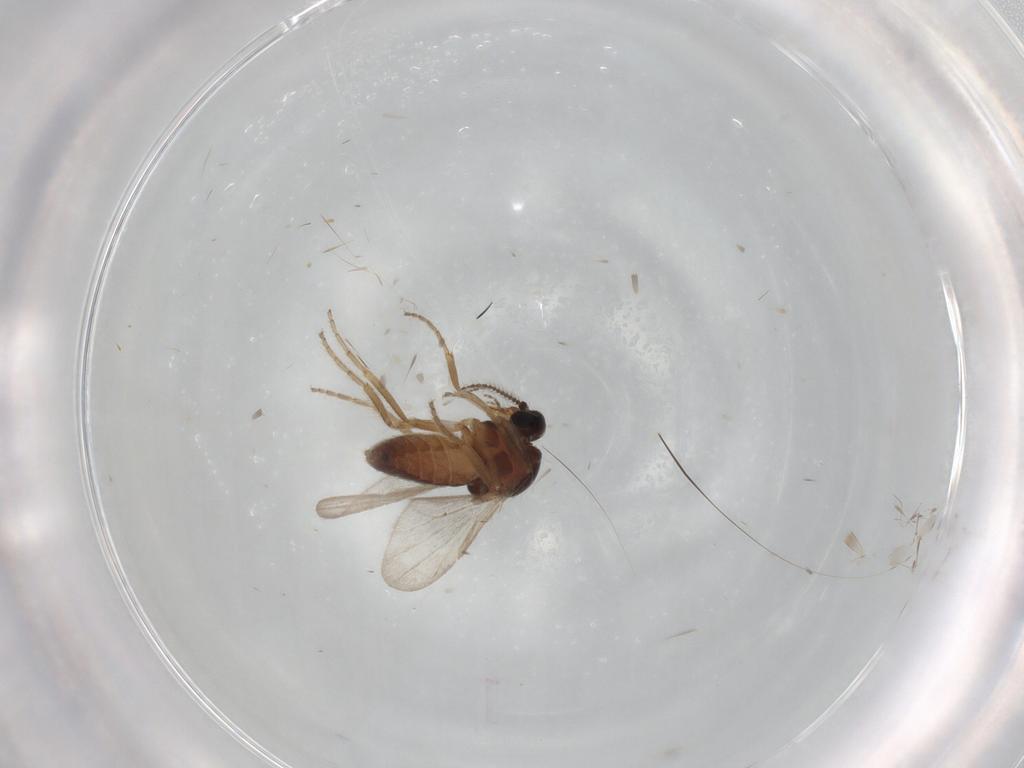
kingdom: Animalia
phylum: Arthropoda
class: Insecta
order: Diptera
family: Ceratopogonidae
